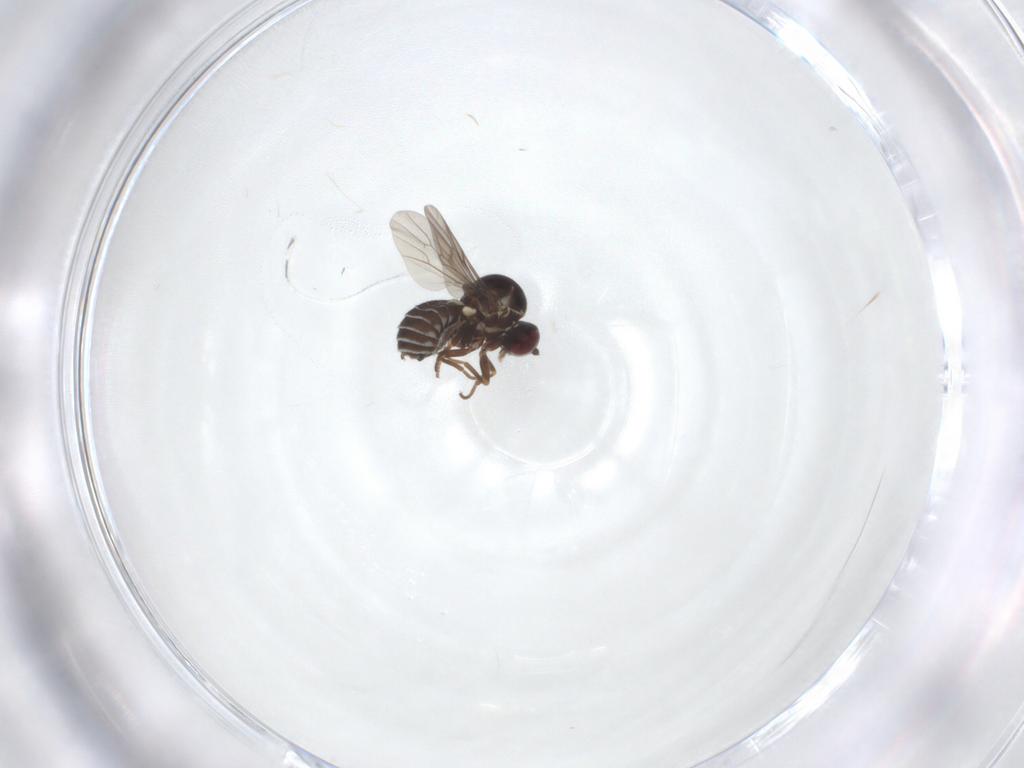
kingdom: Animalia
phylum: Arthropoda
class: Insecta
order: Diptera
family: Mythicomyiidae
